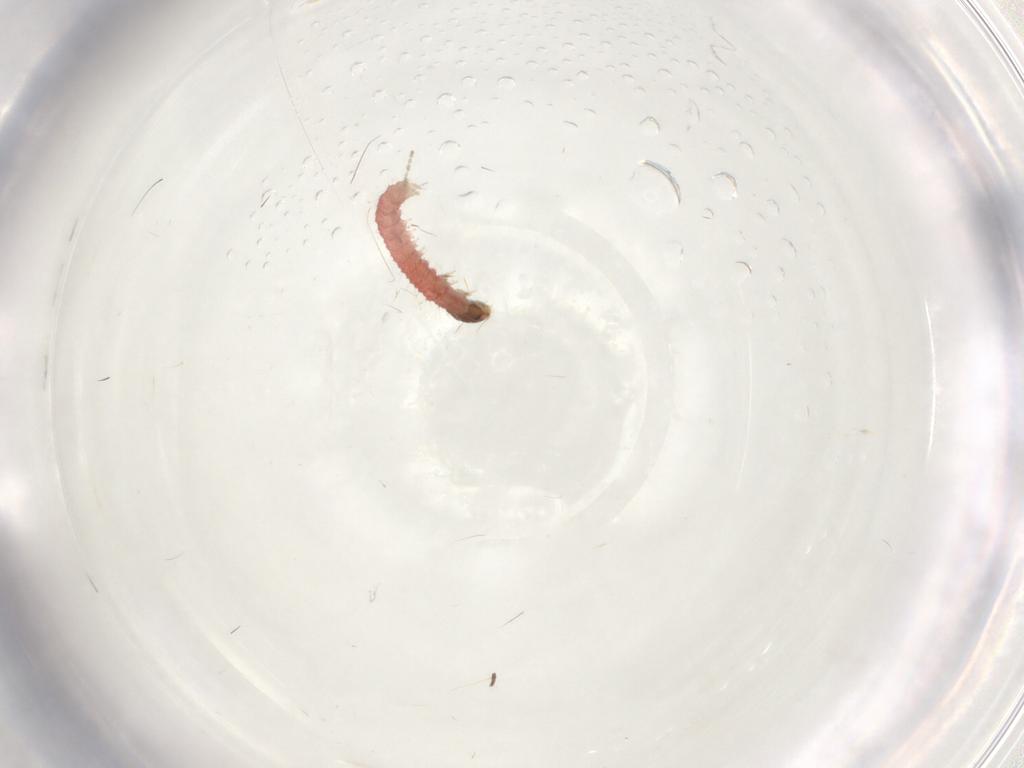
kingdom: Animalia
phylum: Arthropoda
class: Insecta
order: Lepidoptera
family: Pyralidae
